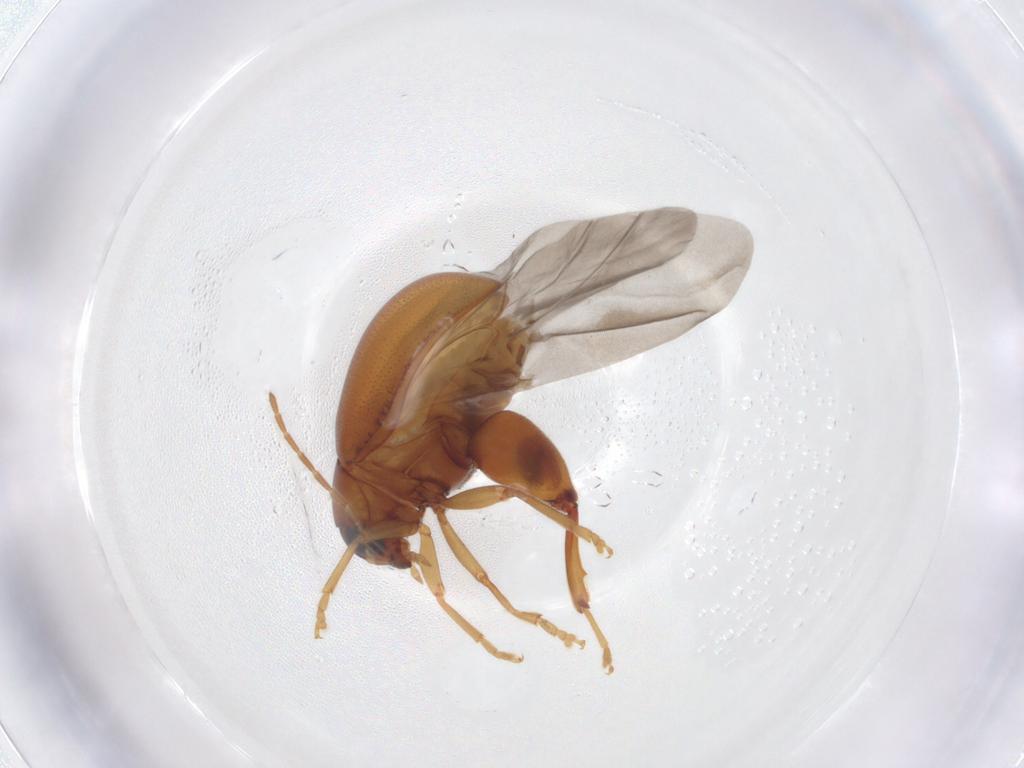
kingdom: Animalia
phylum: Arthropoda
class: Insecta
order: Coleoptera
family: Chrysomelidae
